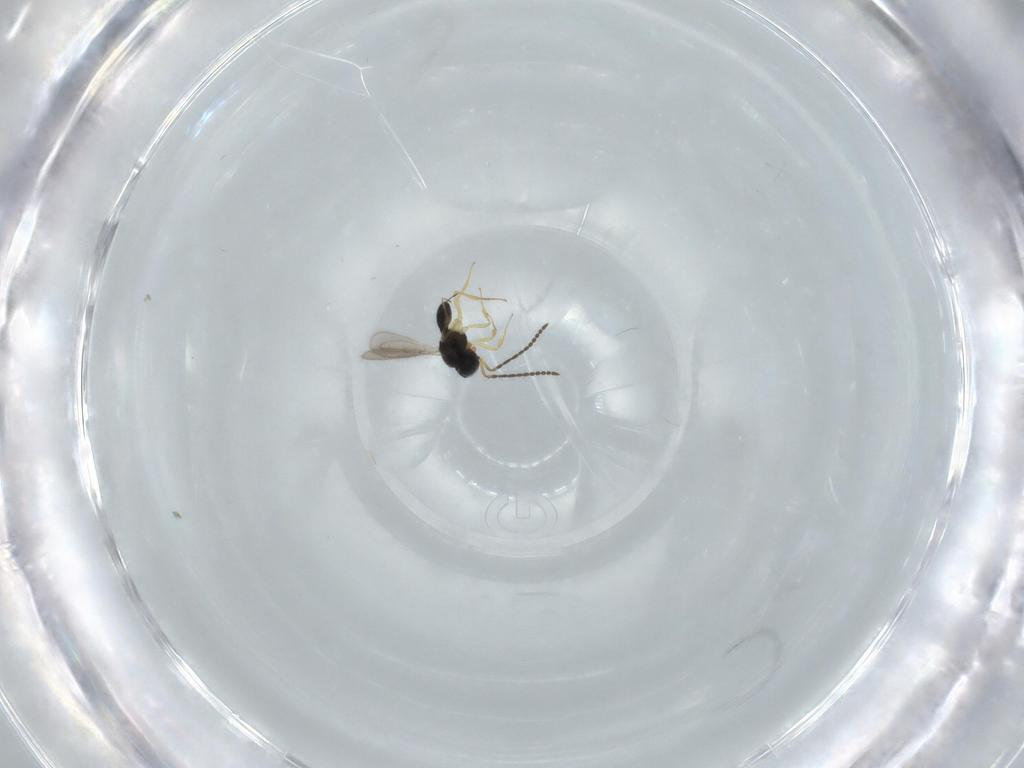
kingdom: Animalia
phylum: Arthropoda
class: Insecta
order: Hymenoptera
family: Scelionidae
